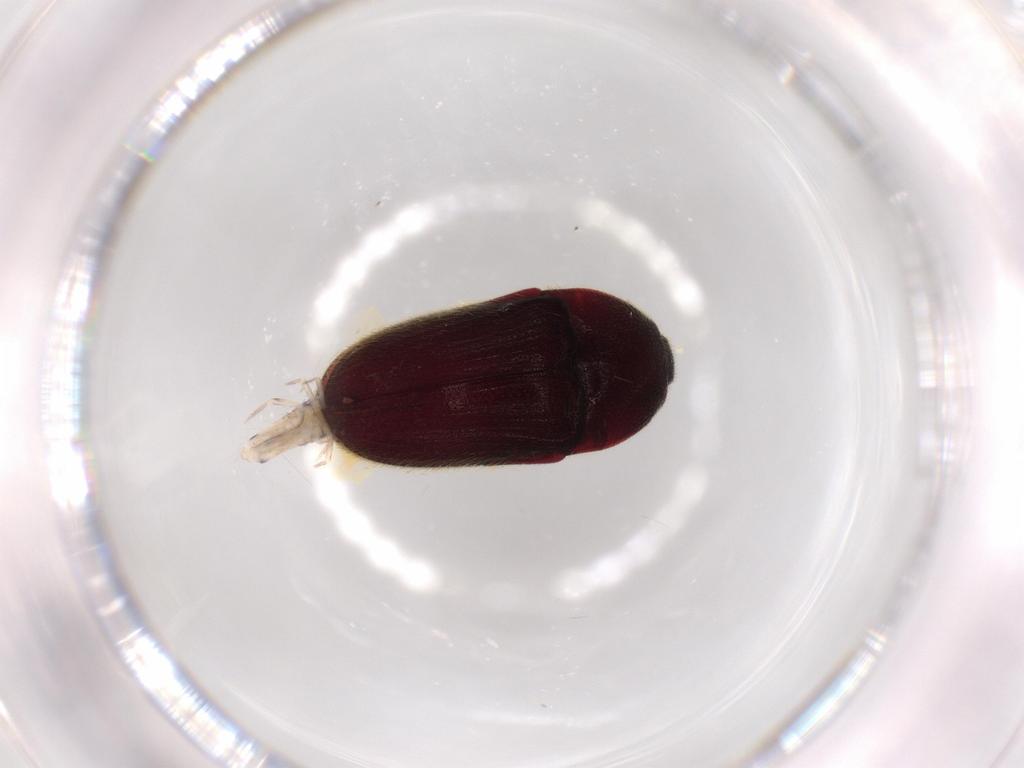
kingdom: Animalia
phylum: Arthropoda
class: Insecta
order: Coleoptera
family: Throscidae
